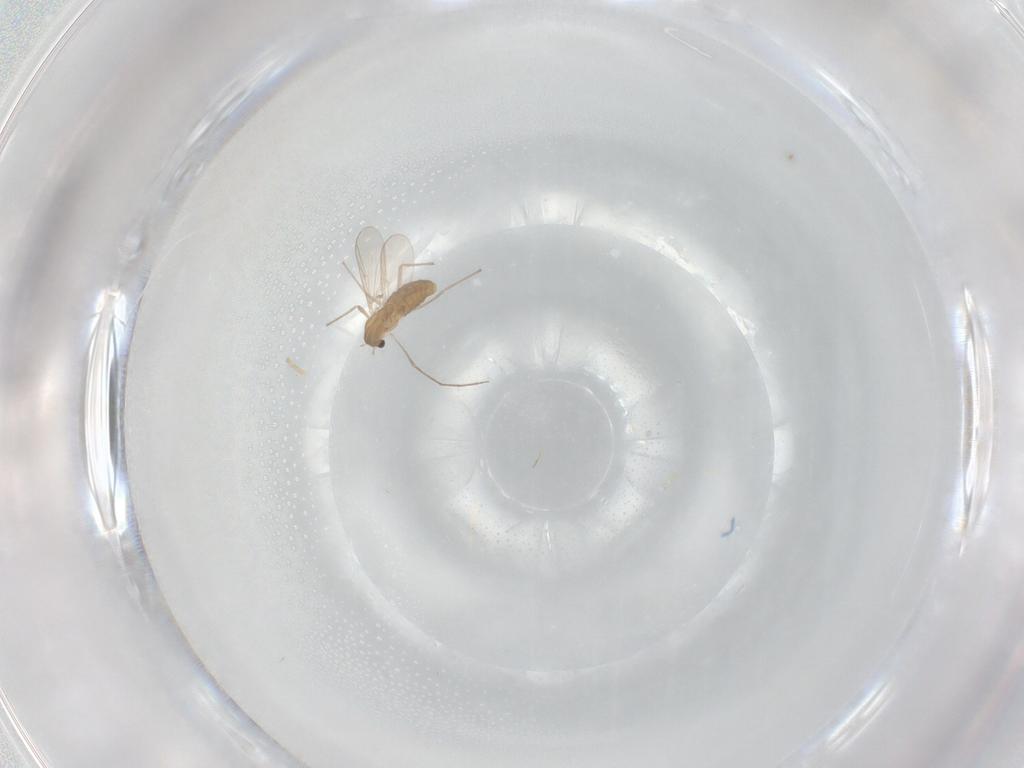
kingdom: Animalia
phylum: Arthropoda
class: Insecta
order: Diptera
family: Chironomidae
